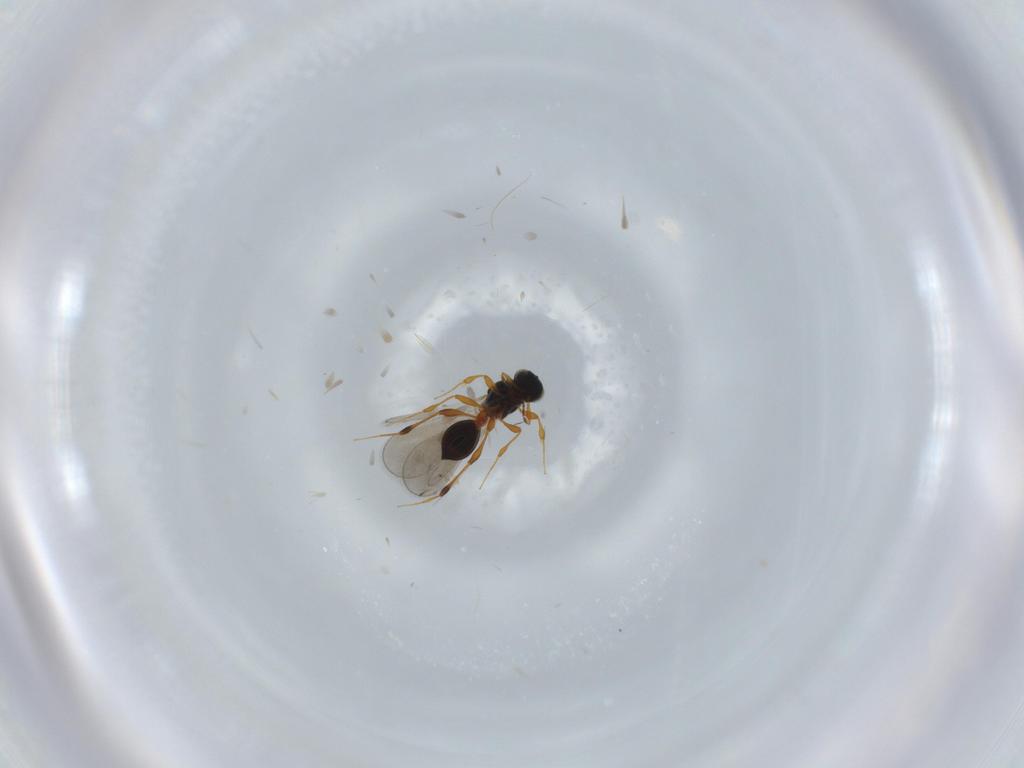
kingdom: Animalia
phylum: Arthropoda
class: Insecta
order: Hymenoptera
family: Platygastridae
